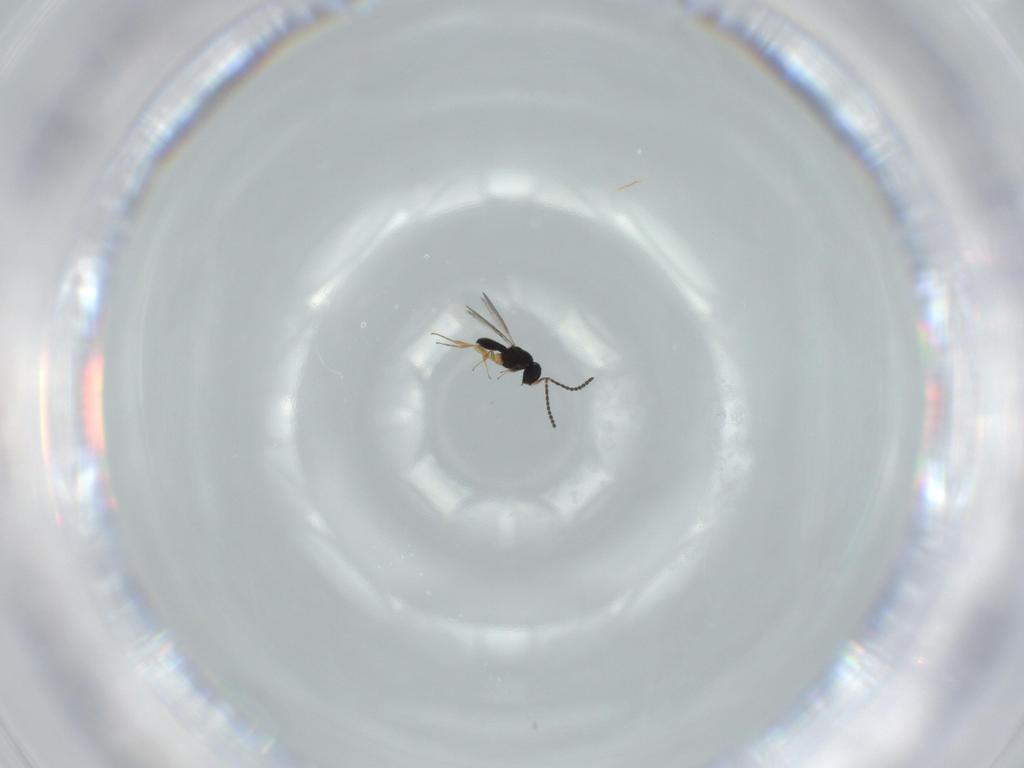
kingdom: Animalia
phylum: Arthropoda
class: Insecta
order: Hymenoptera
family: Scelionidae
